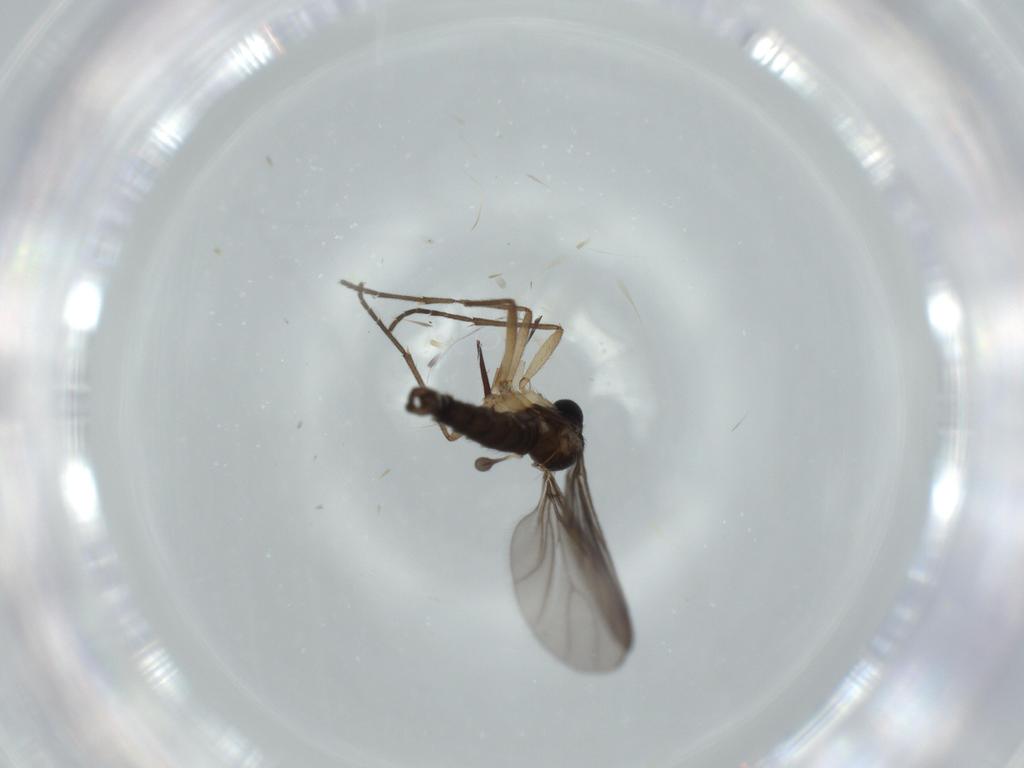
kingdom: Animalia
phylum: Arthropoda
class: Insecta
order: Diptera
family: Sciaridae
